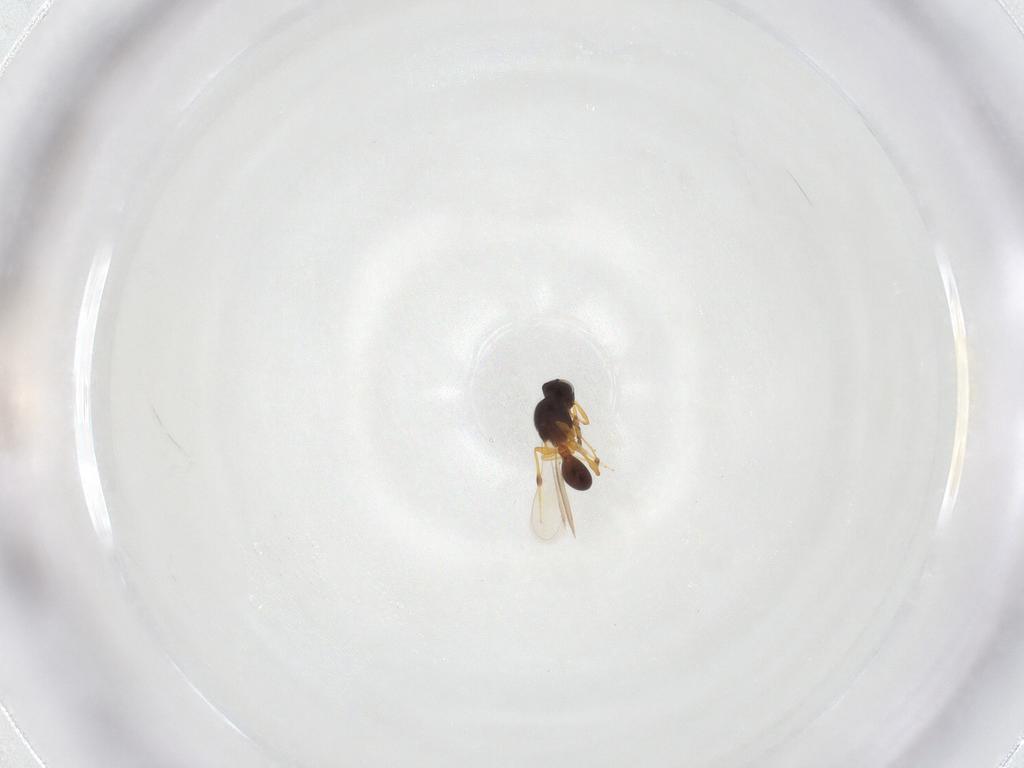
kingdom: Animalia
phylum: Arthropoda
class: Insecta
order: Hymenoptera
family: Platygastridae
